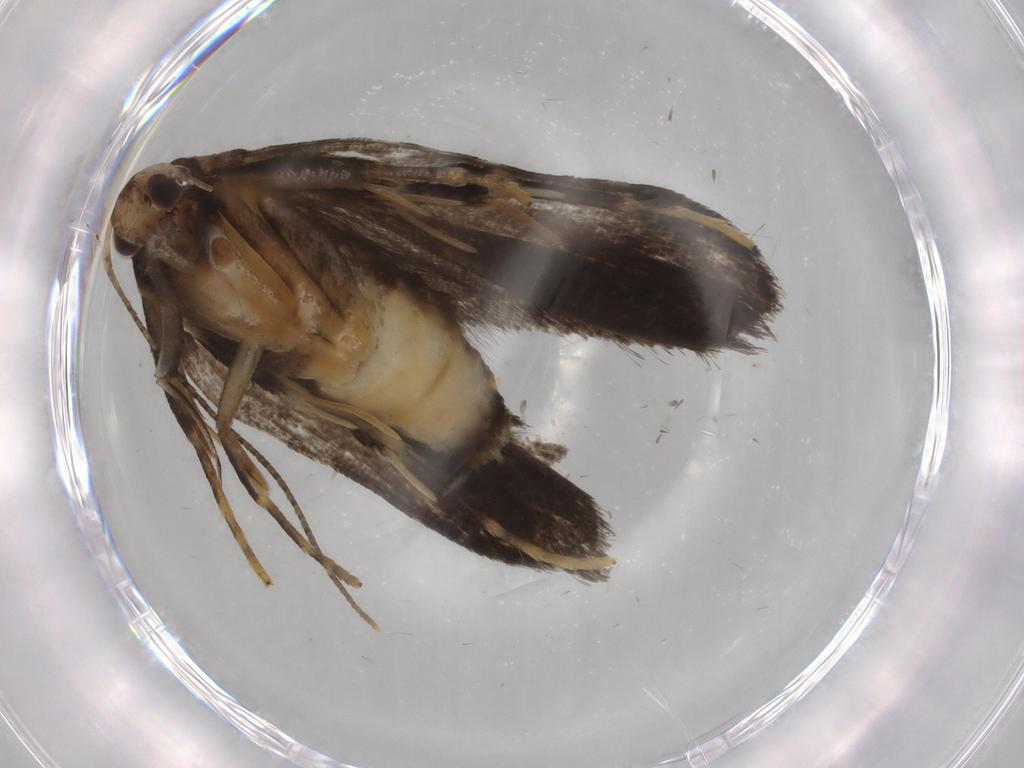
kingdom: Animalia
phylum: Arthropoda
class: Insecta
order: Lepidoptera
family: Gelechiidae
